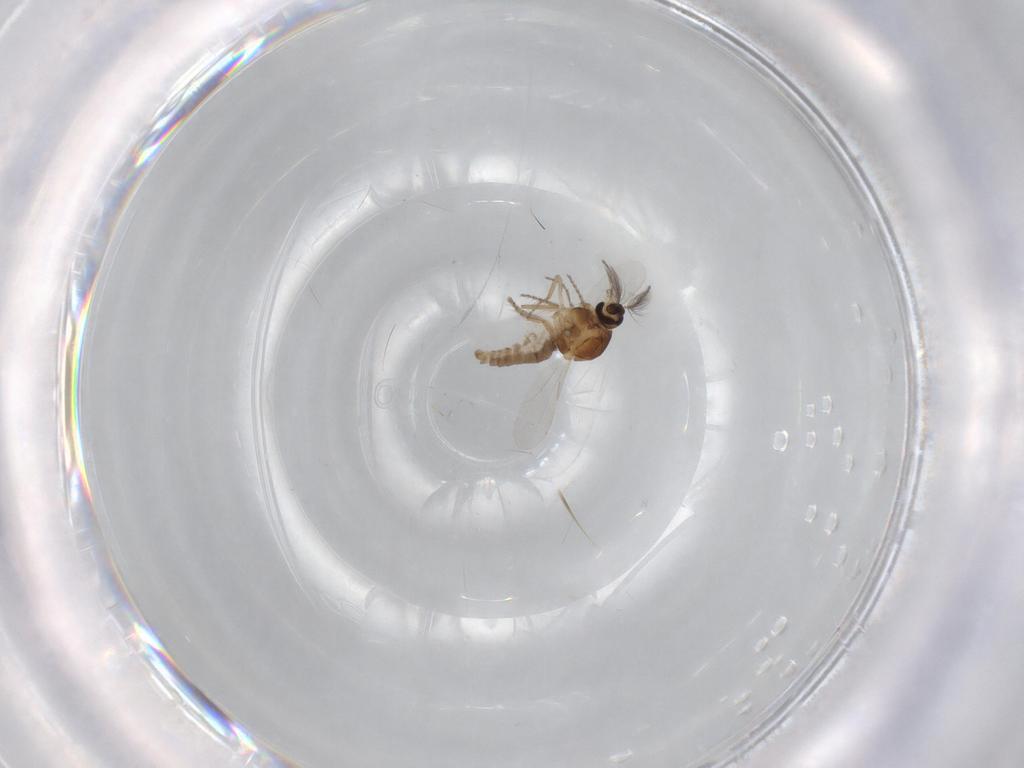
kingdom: Animalia
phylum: Arthropoda
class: Insecta
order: Diptera
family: Ceratopogonidae
